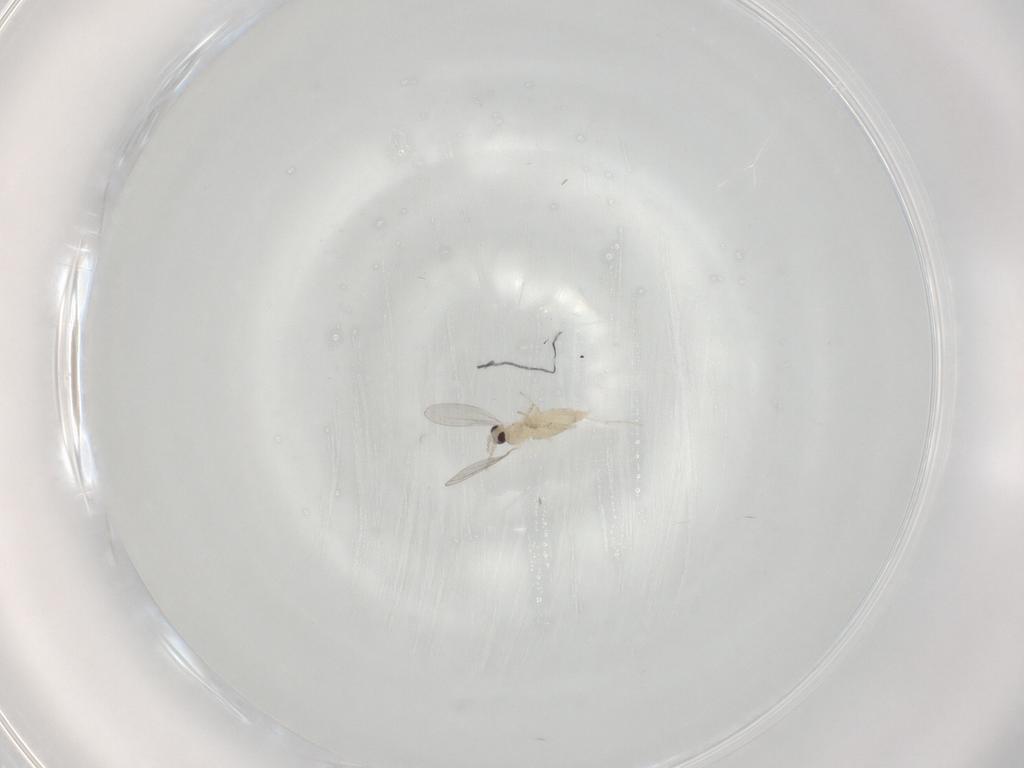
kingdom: Animalia
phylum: Arthropoda
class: Insecta
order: Diptera
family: Cecidomyiidae
